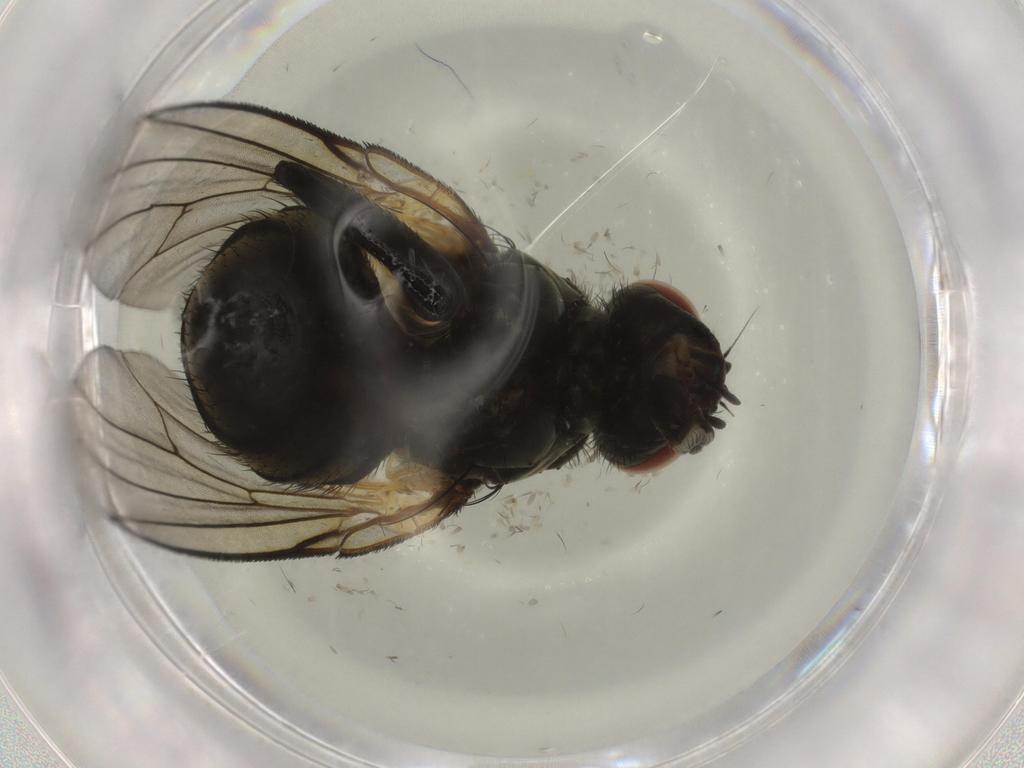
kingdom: Animalia
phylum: Arthropoda
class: Insecta
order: Diptera
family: Muscidae
